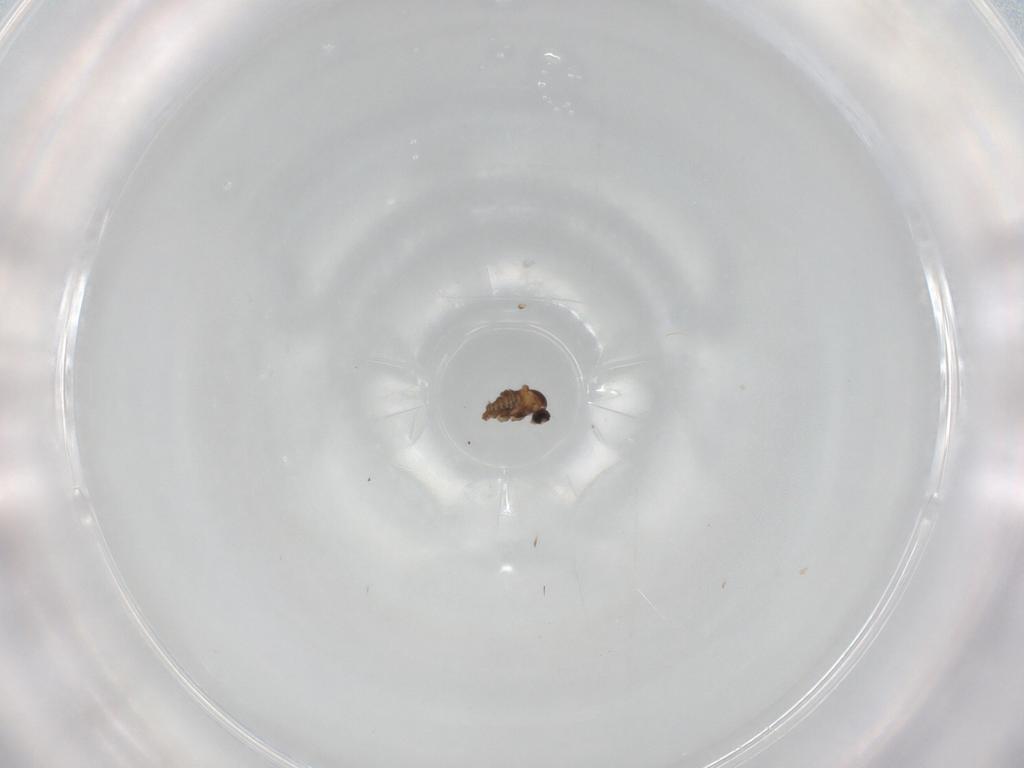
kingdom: Animalia
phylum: Arthropoda
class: Insecta
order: Diptera
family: Cecidomyiidae
